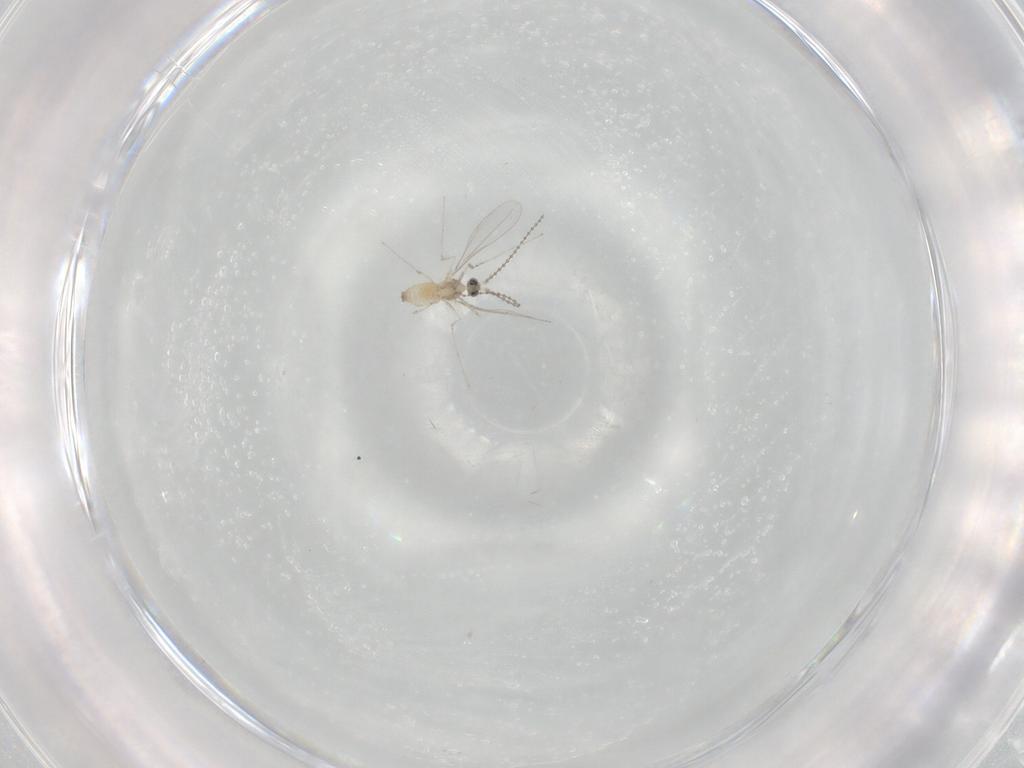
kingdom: Animalia
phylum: Arthropoda
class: Insecta
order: Diptera
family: Cecidomyiidae
